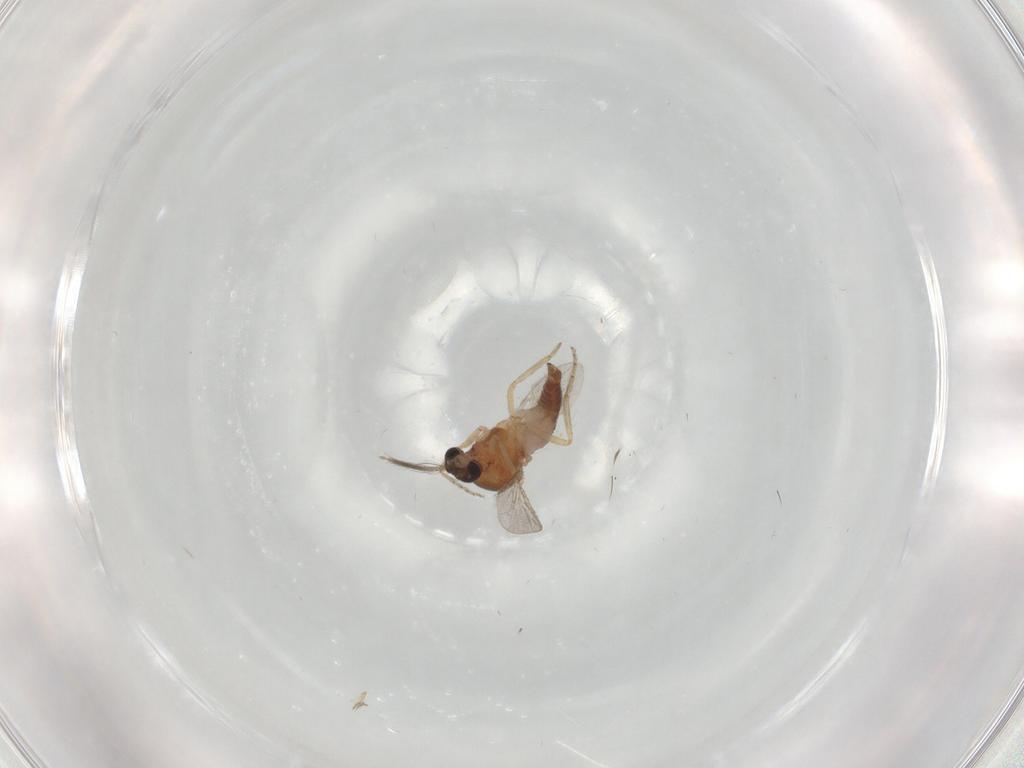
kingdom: Animalia
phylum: Arthropoda
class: Insecta
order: Diptera
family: Ceratopogonidae
